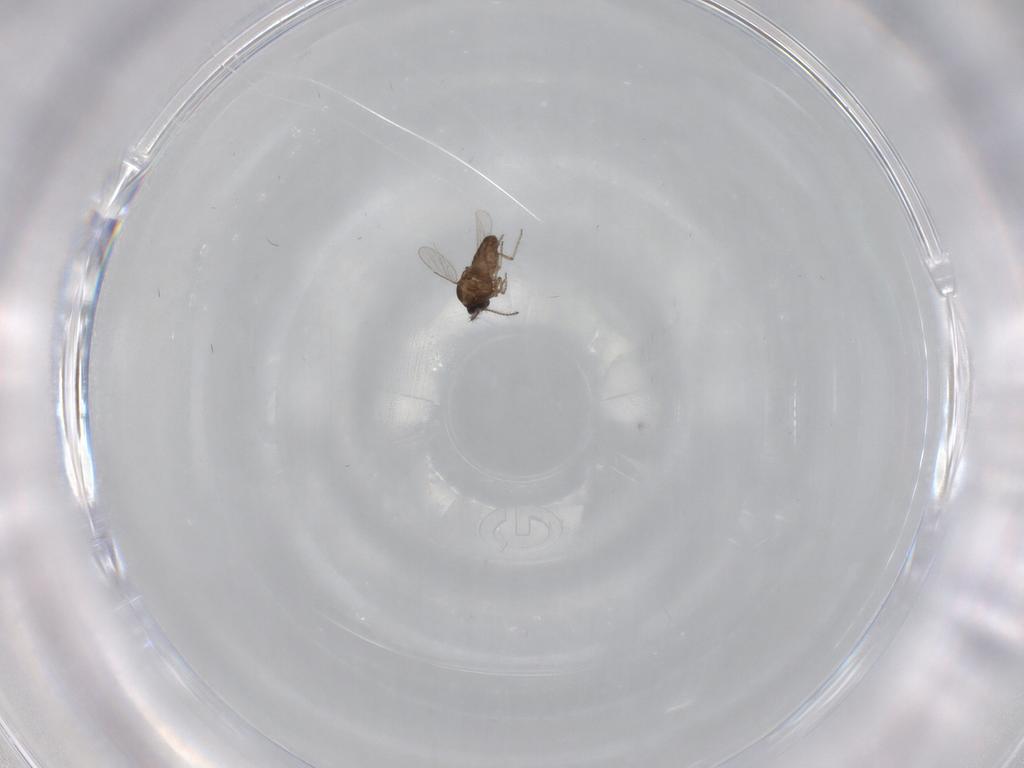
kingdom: Animalia
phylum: Arthropoda
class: Insecta
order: Diptera
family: Ceratopogonidae
